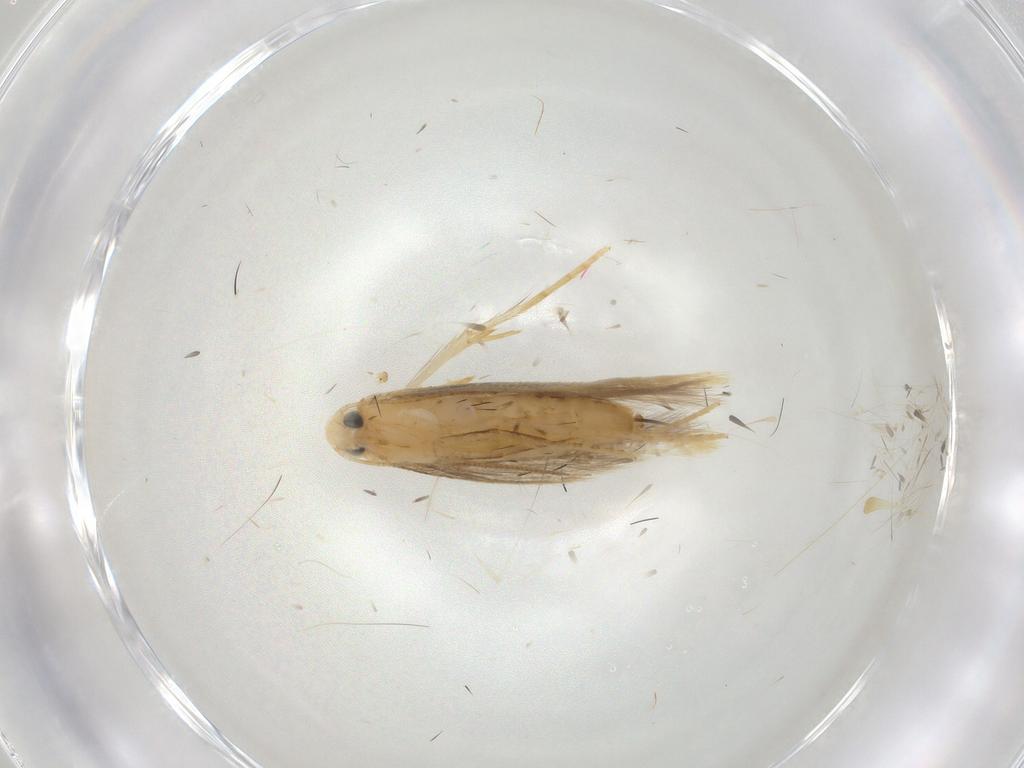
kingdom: Animalia
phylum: Arthropoda
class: Insecta
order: Lepidoptera
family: Tischeriidae
